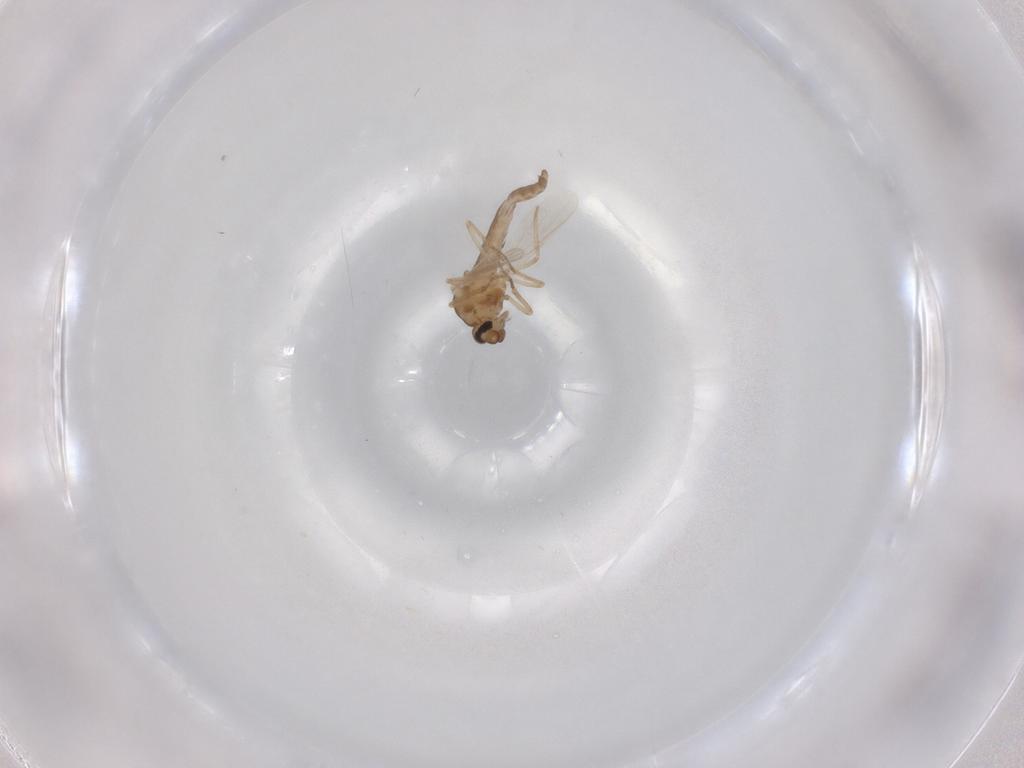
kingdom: Animalia
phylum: Arthropoda
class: Insecta
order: Diptera
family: Ceratopogonidae
